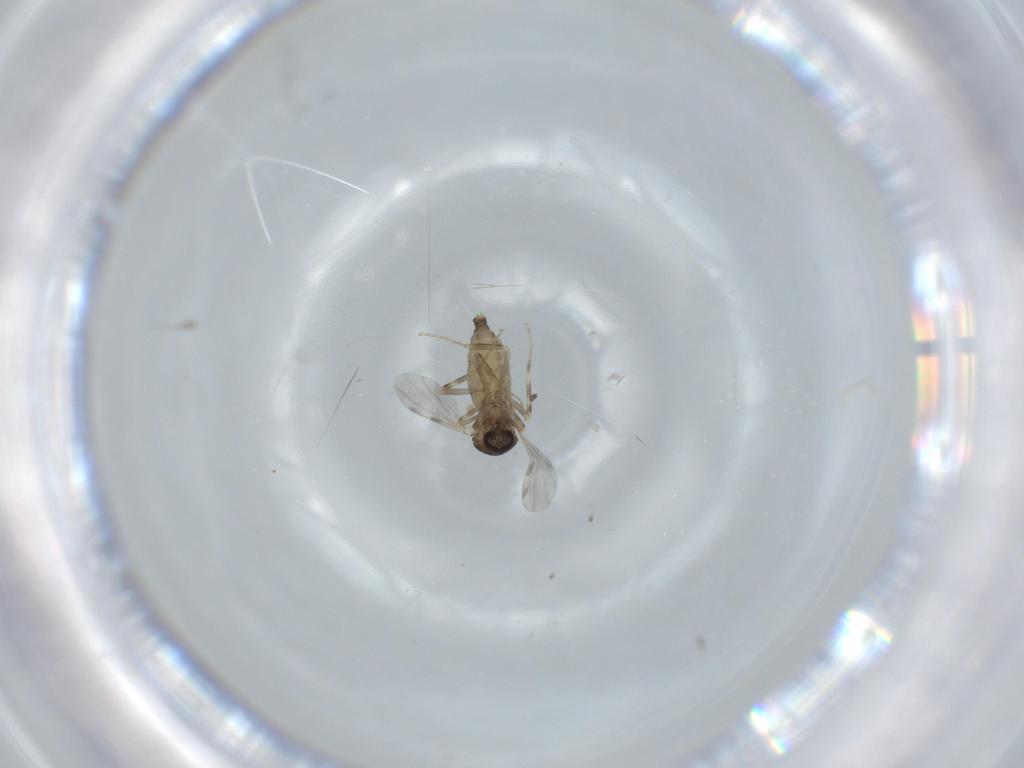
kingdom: Animalia
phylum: Arthropoda
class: Insecta
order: Diptera
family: Ceratopogonidae
